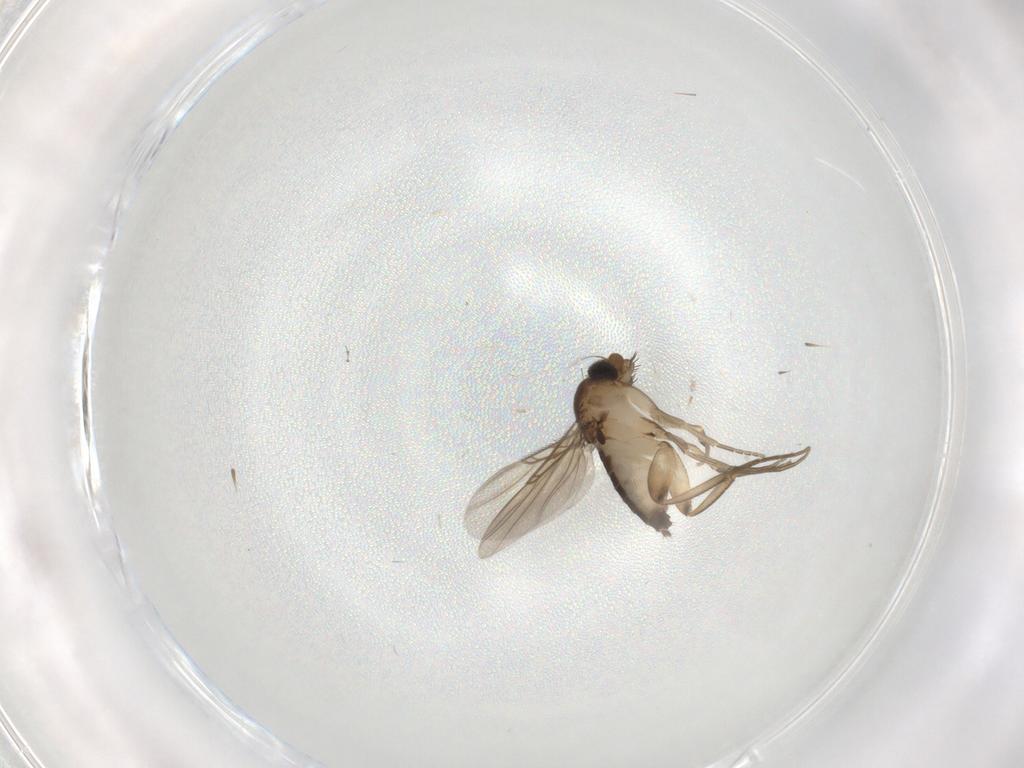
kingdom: Animalia
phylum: Arthropoda
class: Insecta
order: Diptera
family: Phoridae
